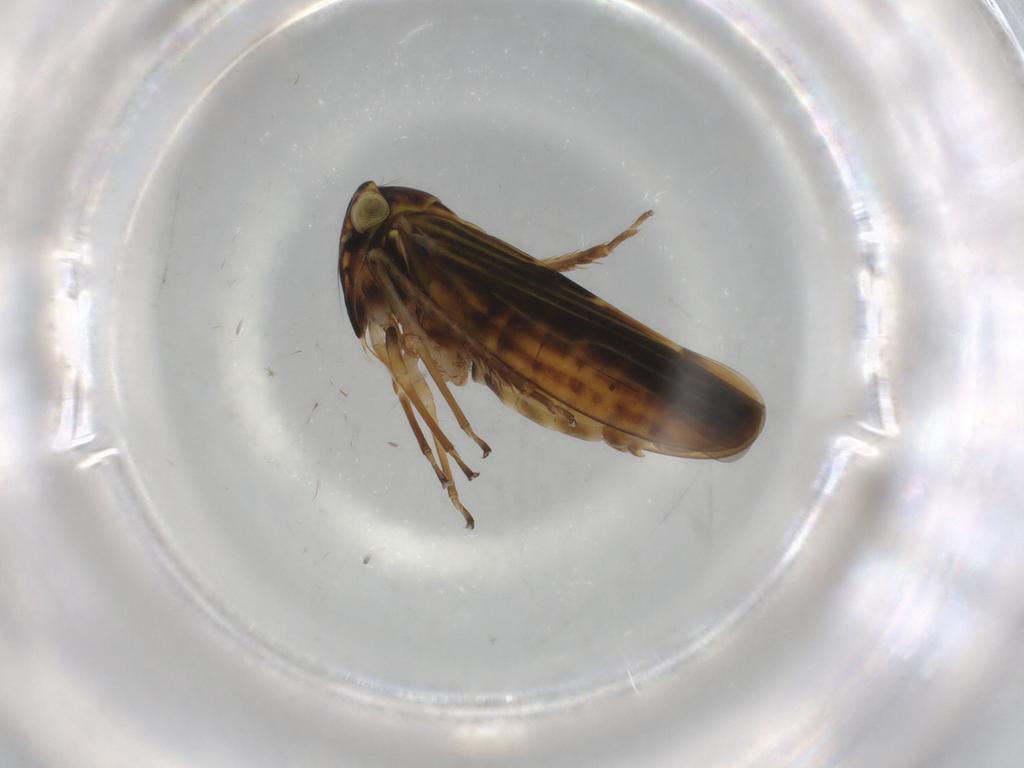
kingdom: Animalia
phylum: Arthropoda
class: Insecta
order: Hemiptera
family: Cicadellidae
